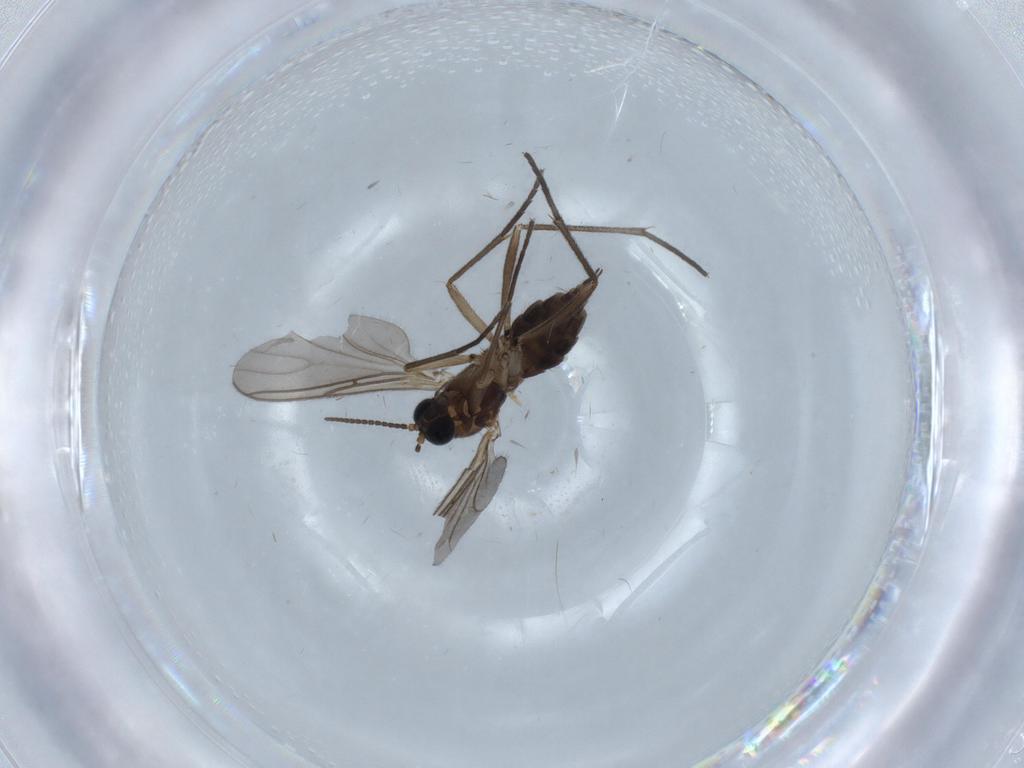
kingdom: Animalia
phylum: Arthropoda
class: Insecta
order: Diptera
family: Sciaridae
